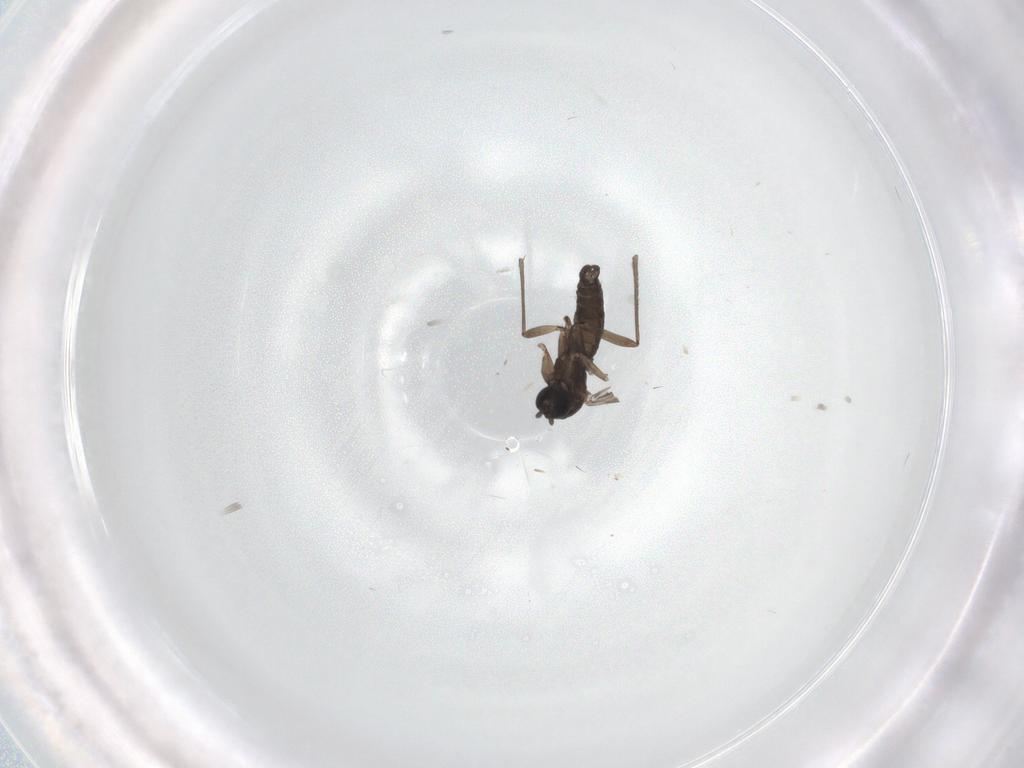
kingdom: Animalia
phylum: Arthropoda
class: Insecta
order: Diptera
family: Sciaridae
